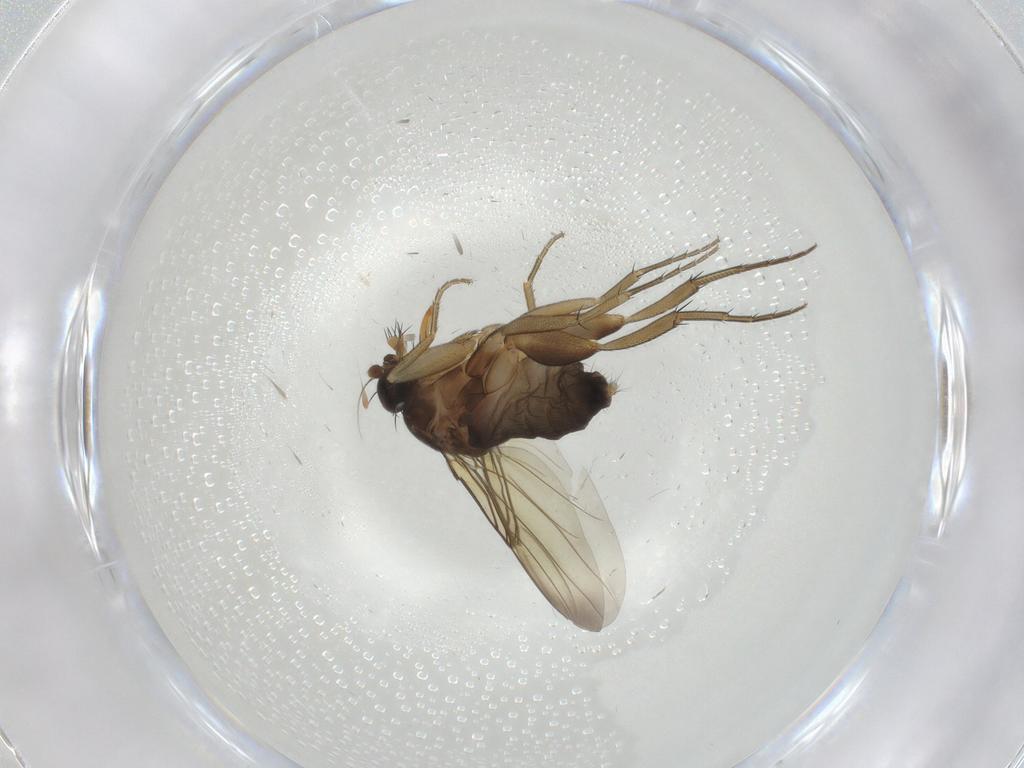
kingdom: Animalia
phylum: Arthropoda
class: Insecta
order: Diptera
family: Phoridae
